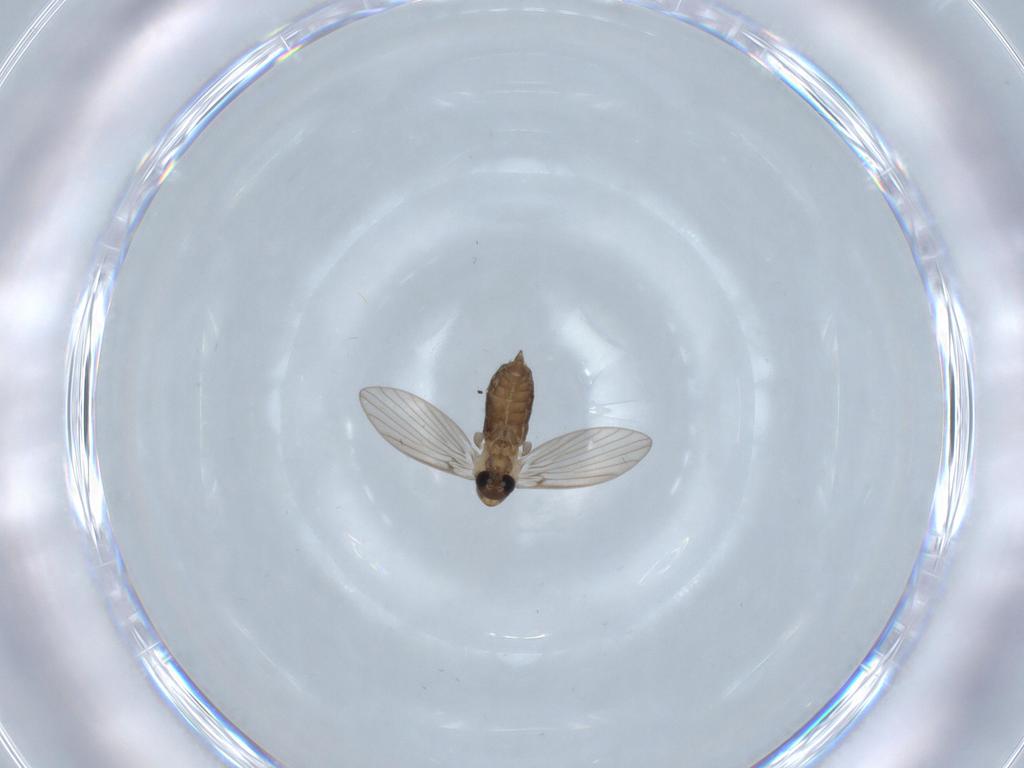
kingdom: Animalia
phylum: Arthropoda
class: Insecta
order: Diptera
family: Psychodidae
